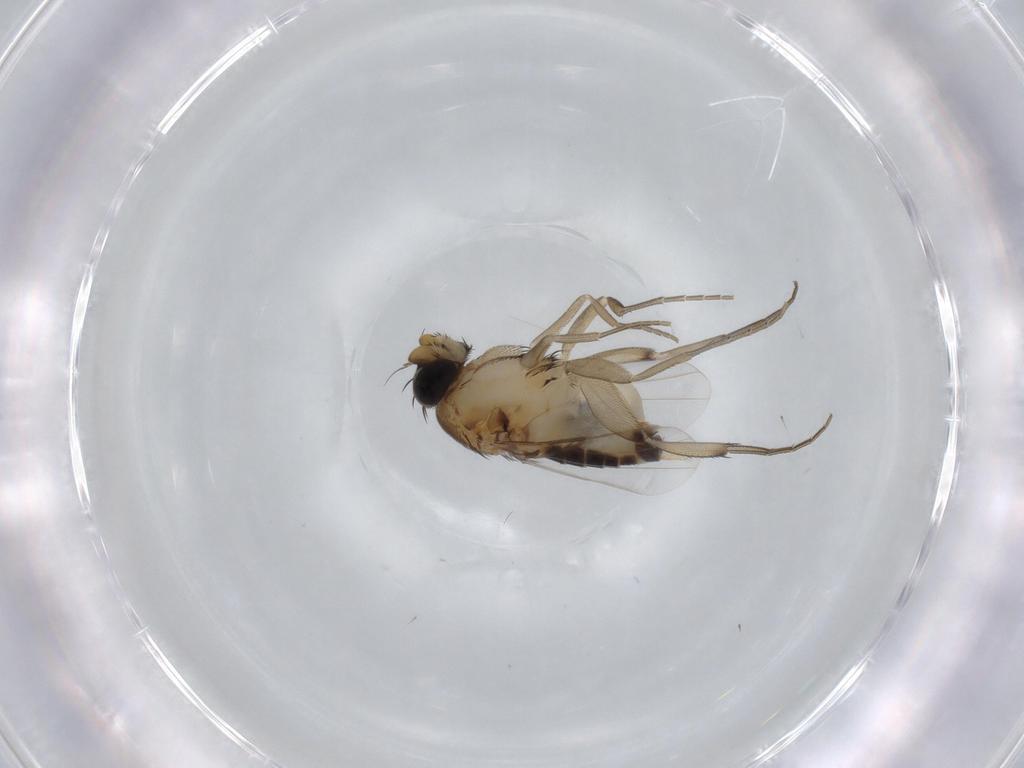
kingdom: Animalia
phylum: Arthropoda
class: Insecta
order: Diptera
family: Phoridae
